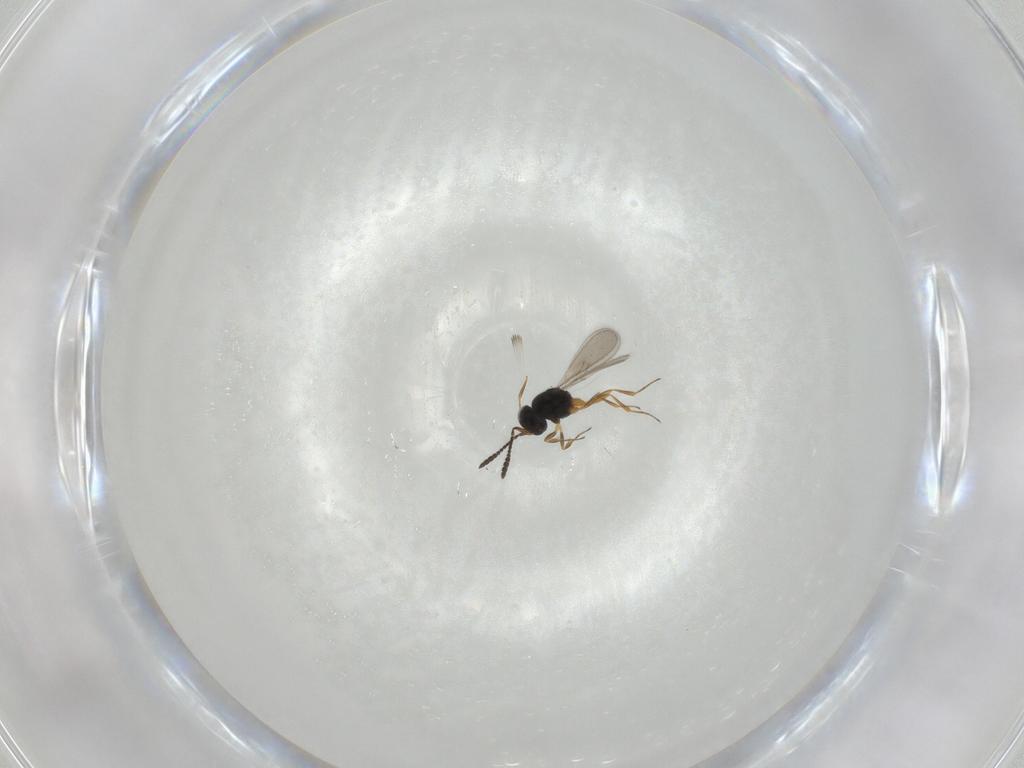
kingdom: Animalia
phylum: Arthropoda
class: Insecta
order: Hymenoptera
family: Scelionidae
